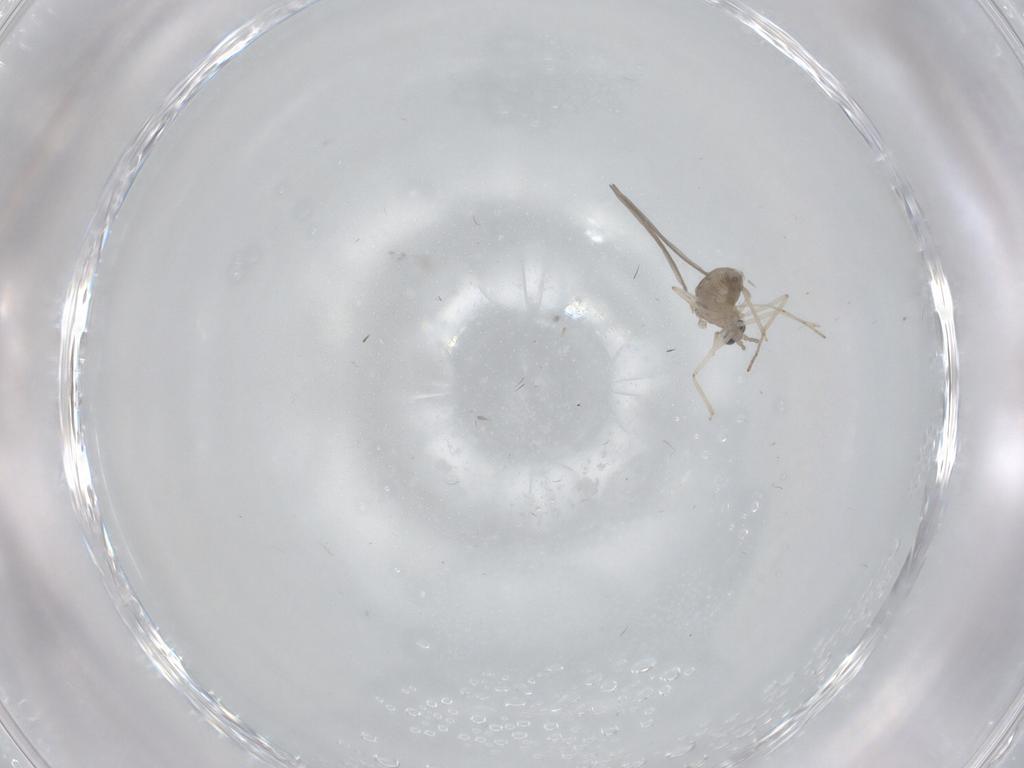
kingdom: Animalia
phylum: Arthropoda
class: Insecta
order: Diptera
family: Cecidomyiidae
